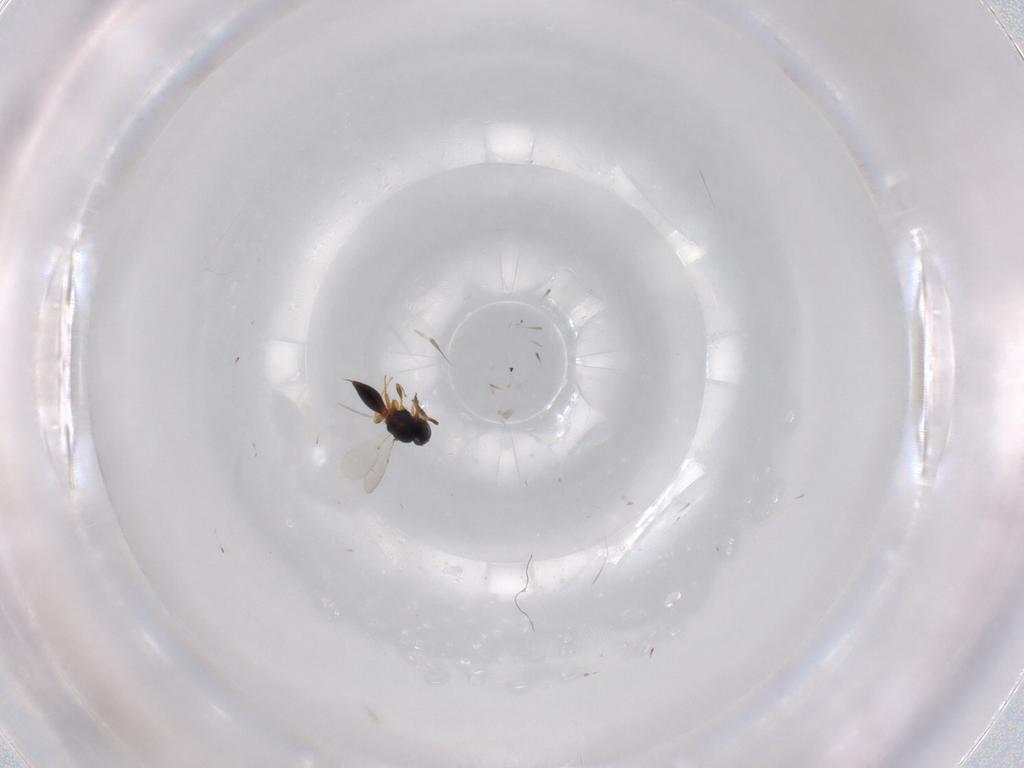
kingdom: Animalia
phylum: Arthropoda
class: Insecta
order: Hymenoptera
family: Platygastridae
